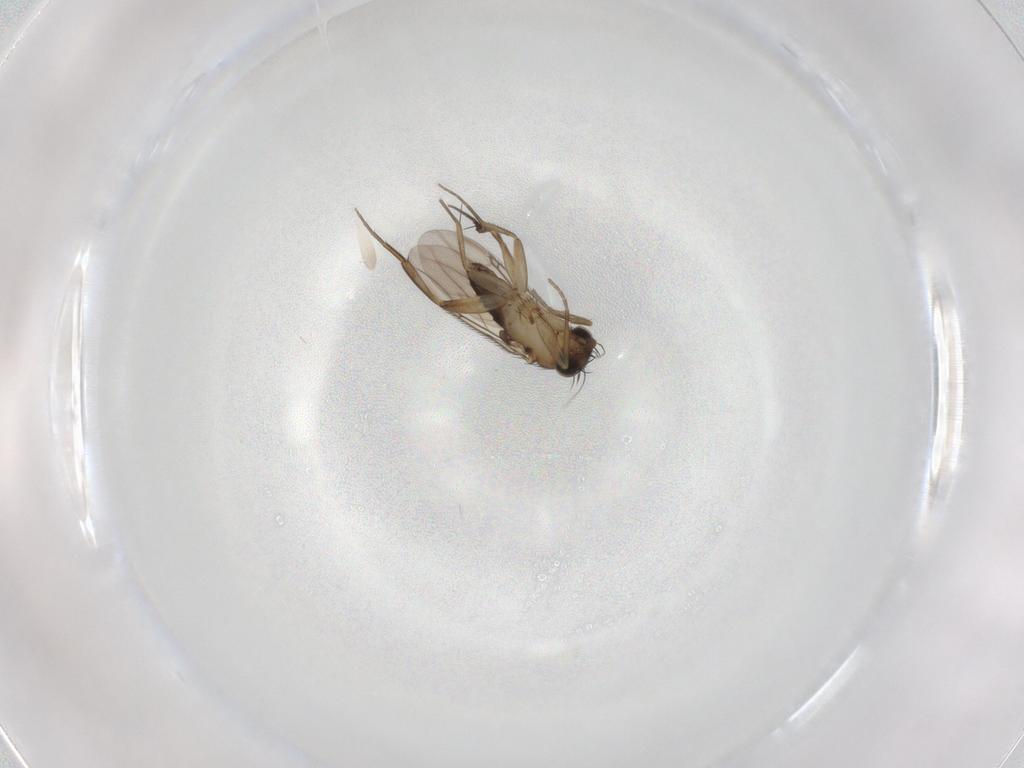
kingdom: Animalia
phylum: Arthropoda
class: Insecta
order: Diptera
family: Phoridae
